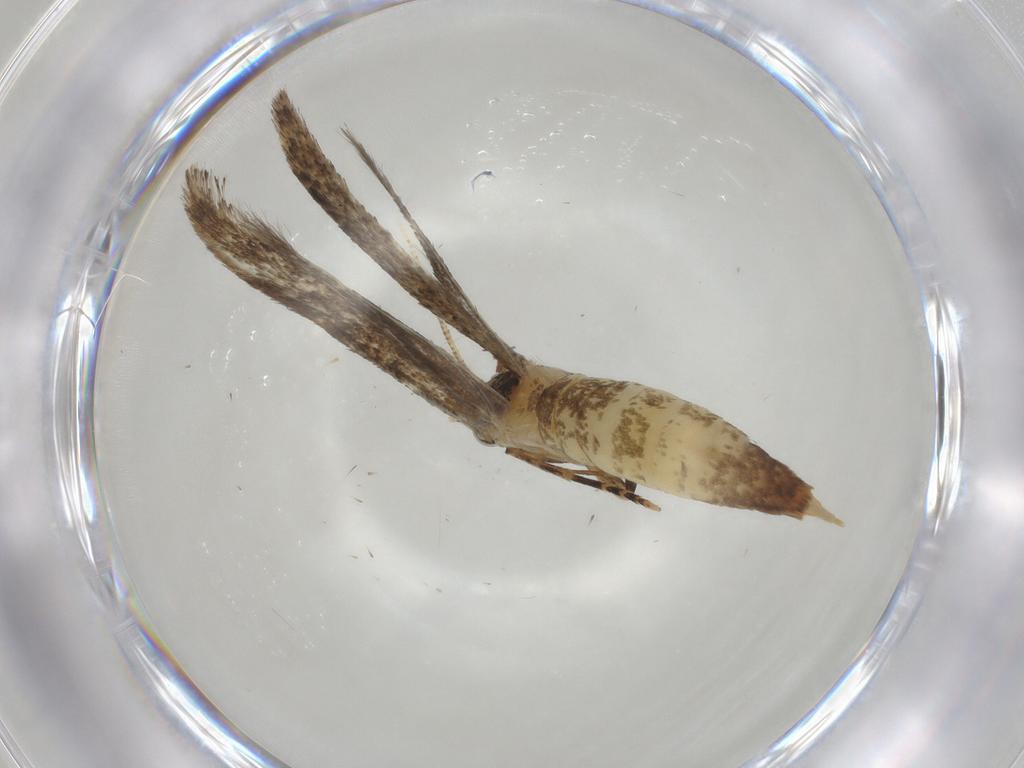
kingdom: Animalia
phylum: Arthropoda
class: Insecta
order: Lepidoptera
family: Tineidae
